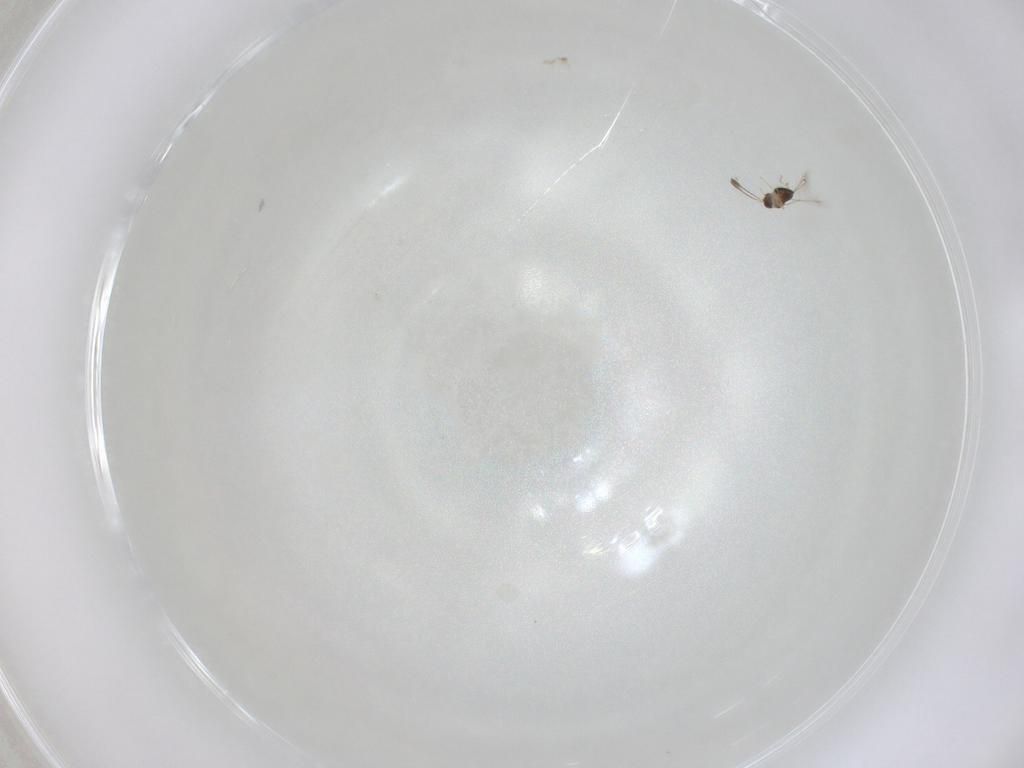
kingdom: Animalia
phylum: Arthropoda
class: Insecta
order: Hymenoptera
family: Mymaridae
